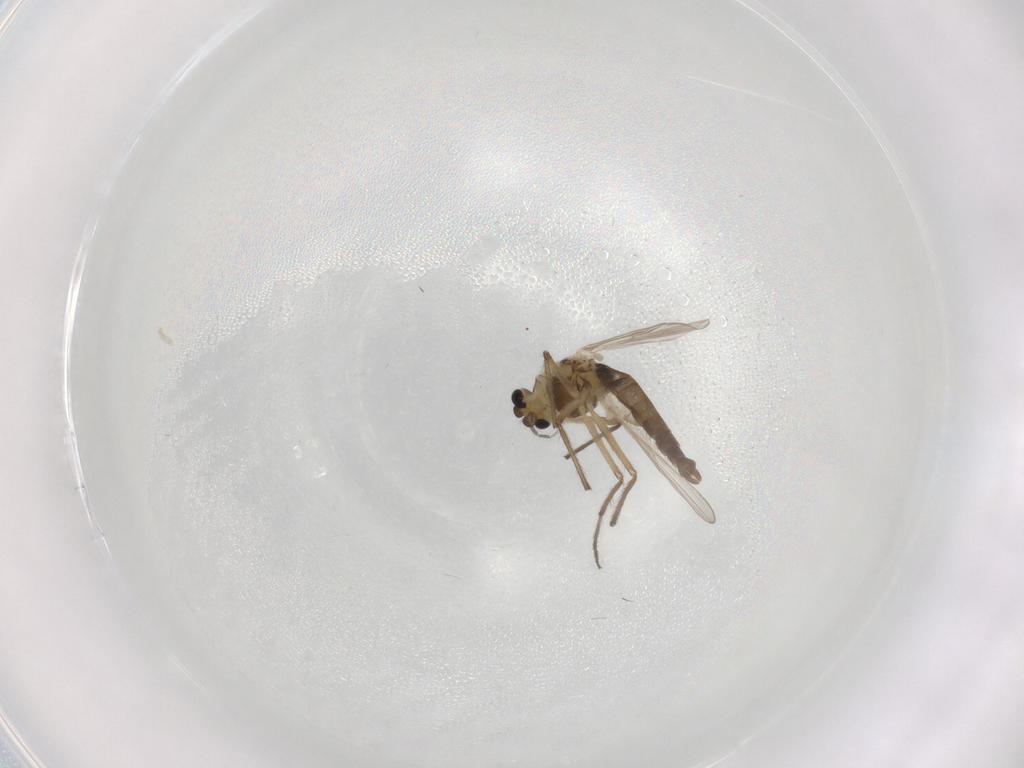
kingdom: Animalia
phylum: Arthropoda
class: Insecta
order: Diptera
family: Chironomidae
